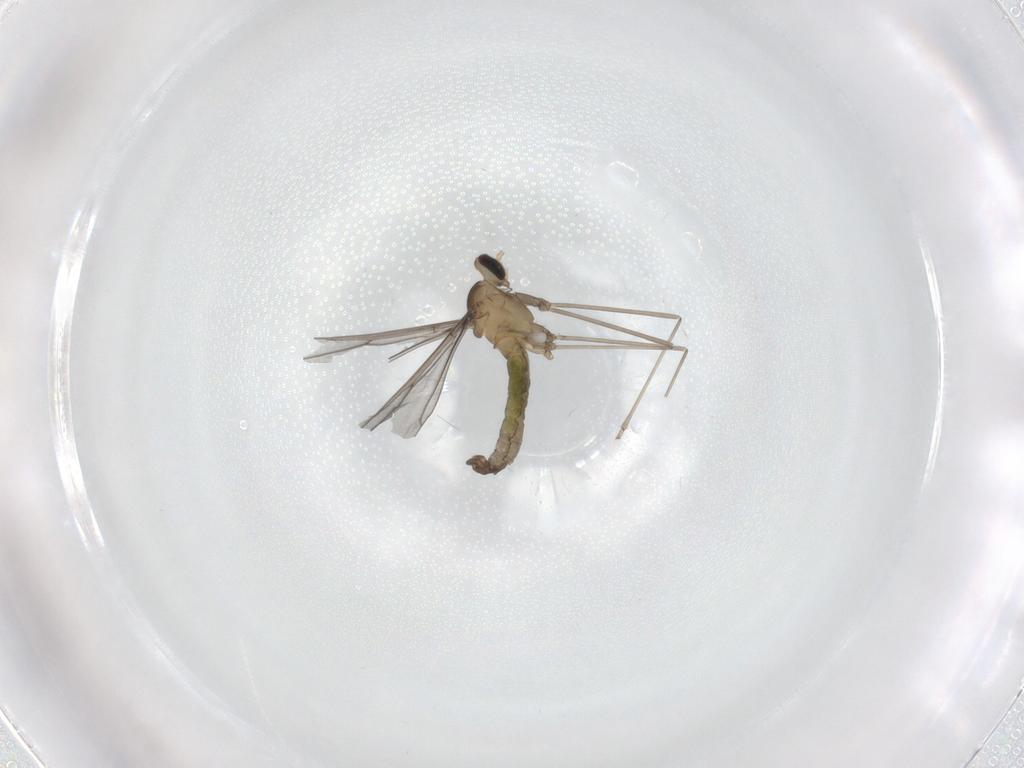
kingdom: Animalia
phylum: Arthropoda
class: Insecta
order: Diptera
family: Cecidomyiidae
